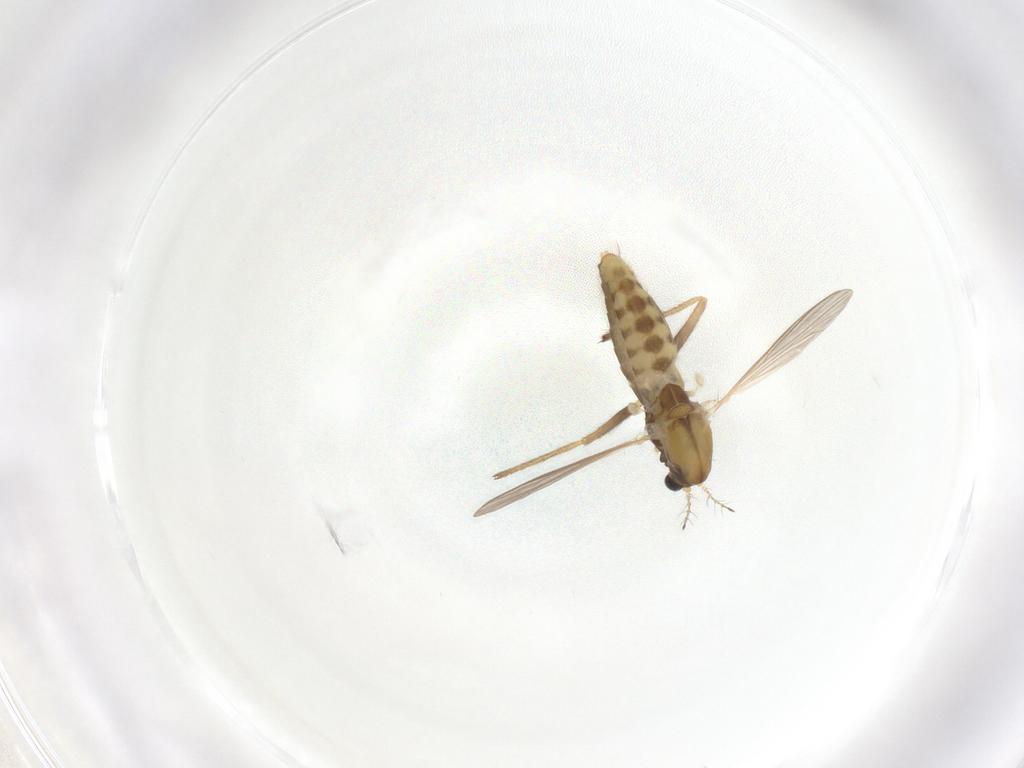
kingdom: Animalia
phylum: Arthropoda
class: Insecta
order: Diptera
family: Chironomidae
